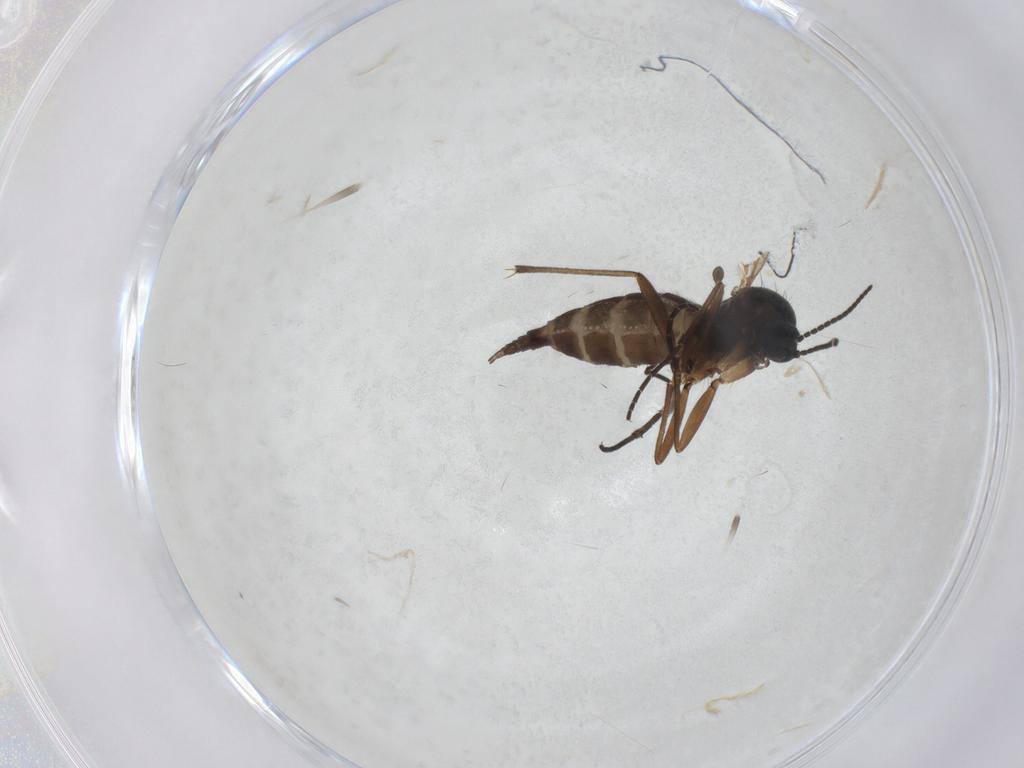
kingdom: Animalia
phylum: Arthropoda
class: Insecta
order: Diptera
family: Sciaridae
